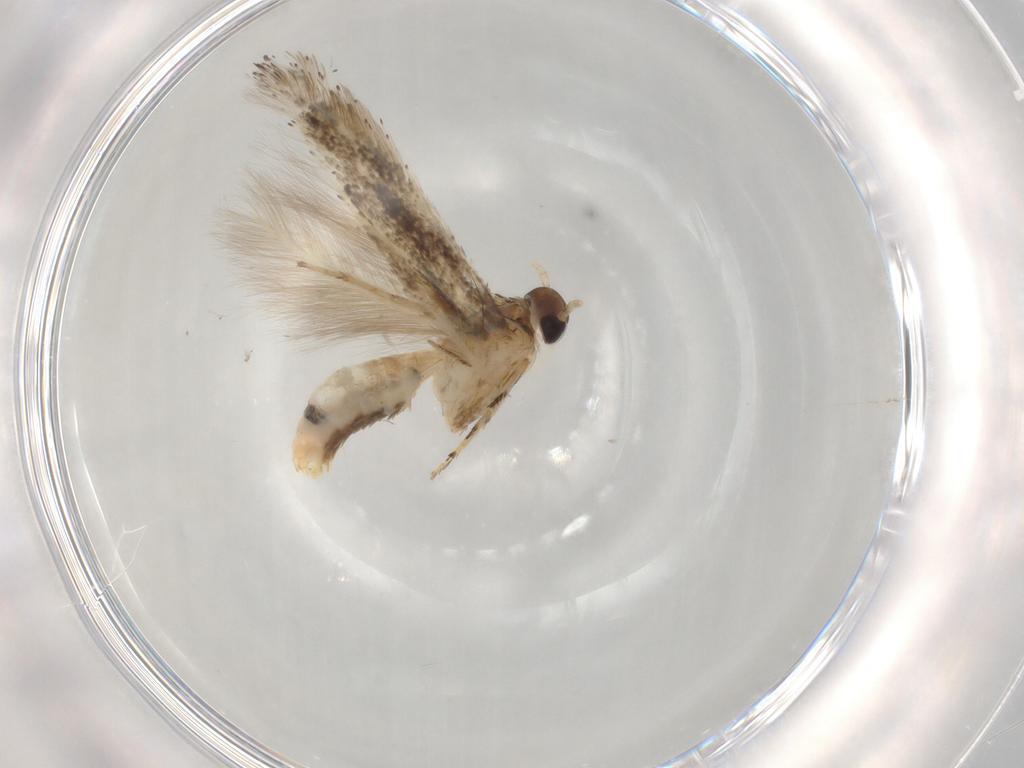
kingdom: Animalia
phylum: Arthropoda
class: Insecta
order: Lepidoptera
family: Gelechiidae
